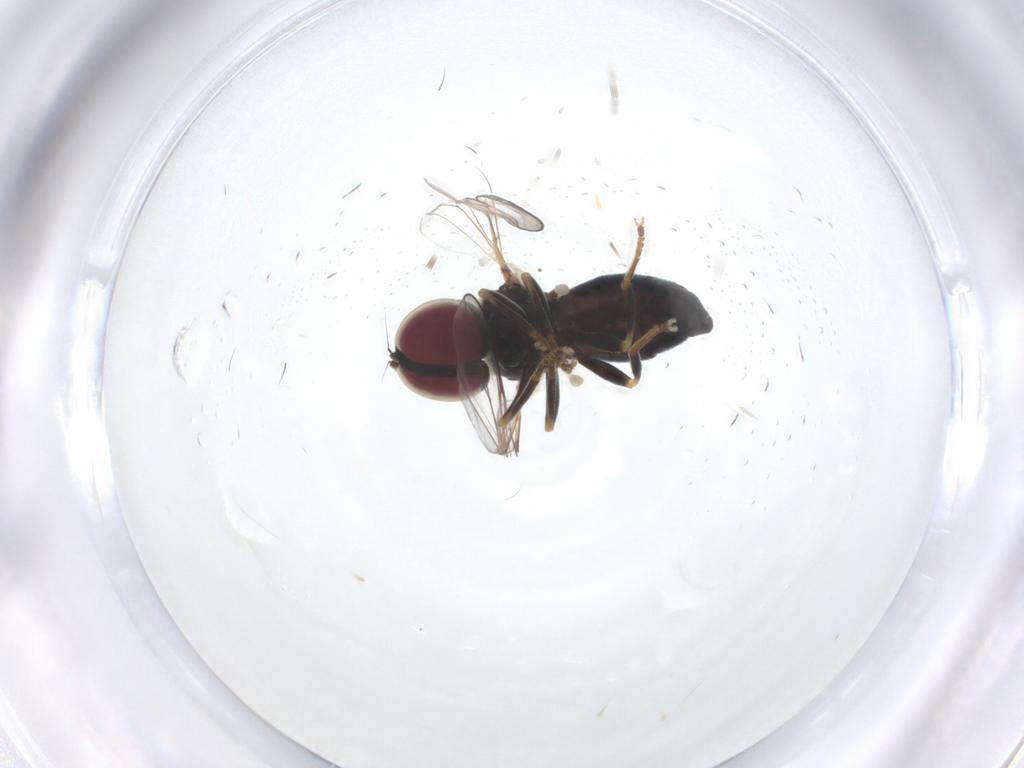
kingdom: Animalia
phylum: Arthropoda
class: Insecta
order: Diptera
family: Pipunculidae
